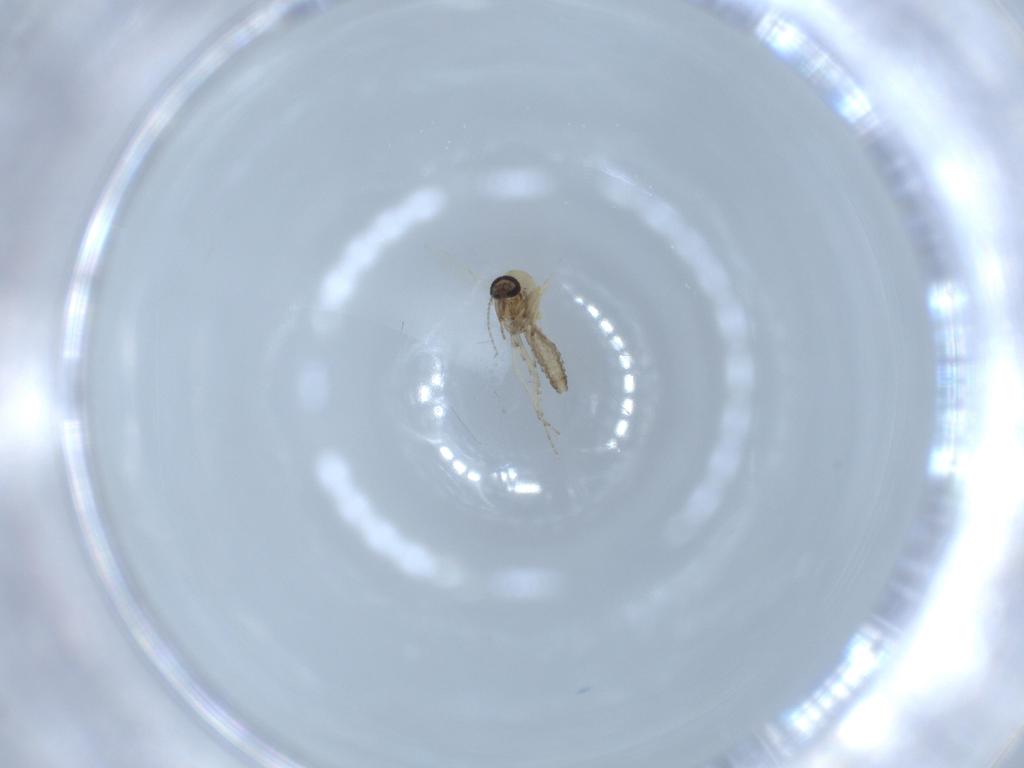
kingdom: Animalia
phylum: Arthropoda
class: Insecta
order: Diptera
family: Ceratopogonidae
